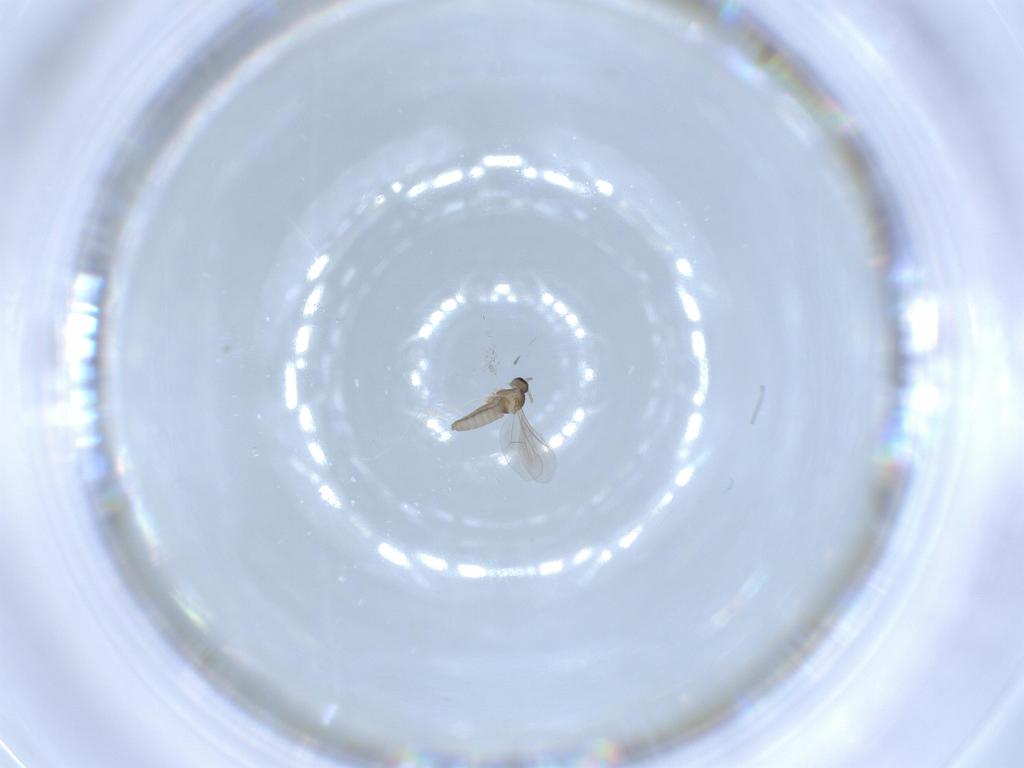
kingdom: Animalia
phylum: Arthropoda
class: Insecta
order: Diptera
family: Cecidomyiidae
